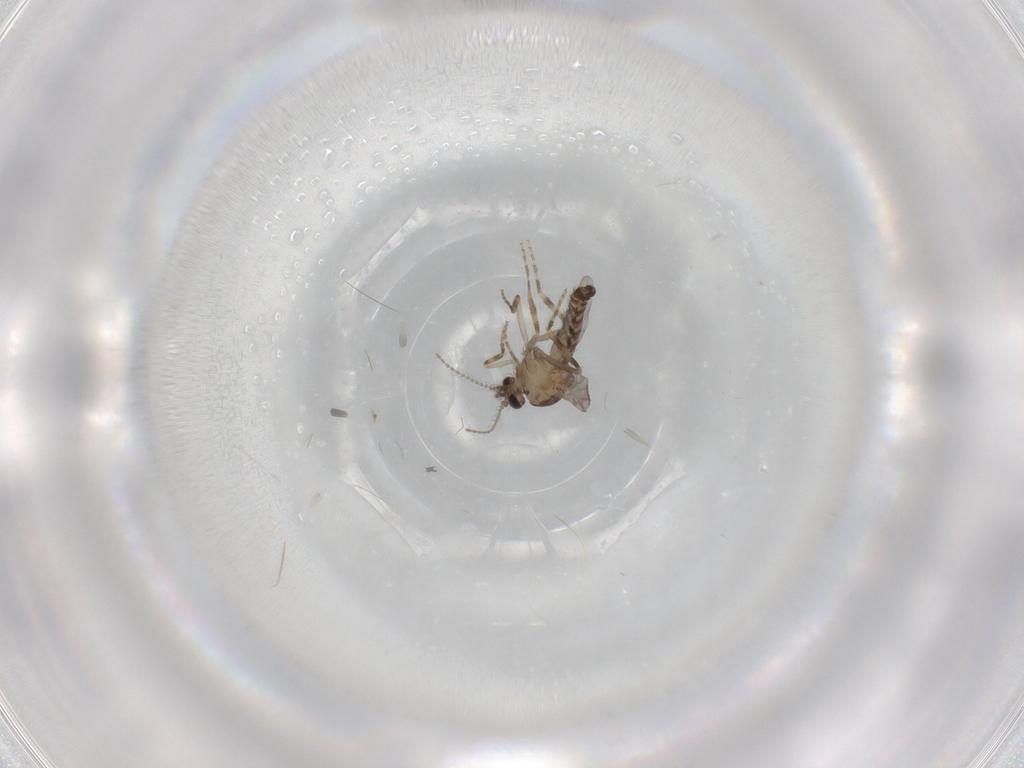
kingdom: Animalia
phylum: Arthropoda
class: Insecta
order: Diptera
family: Ceratopogonidae
